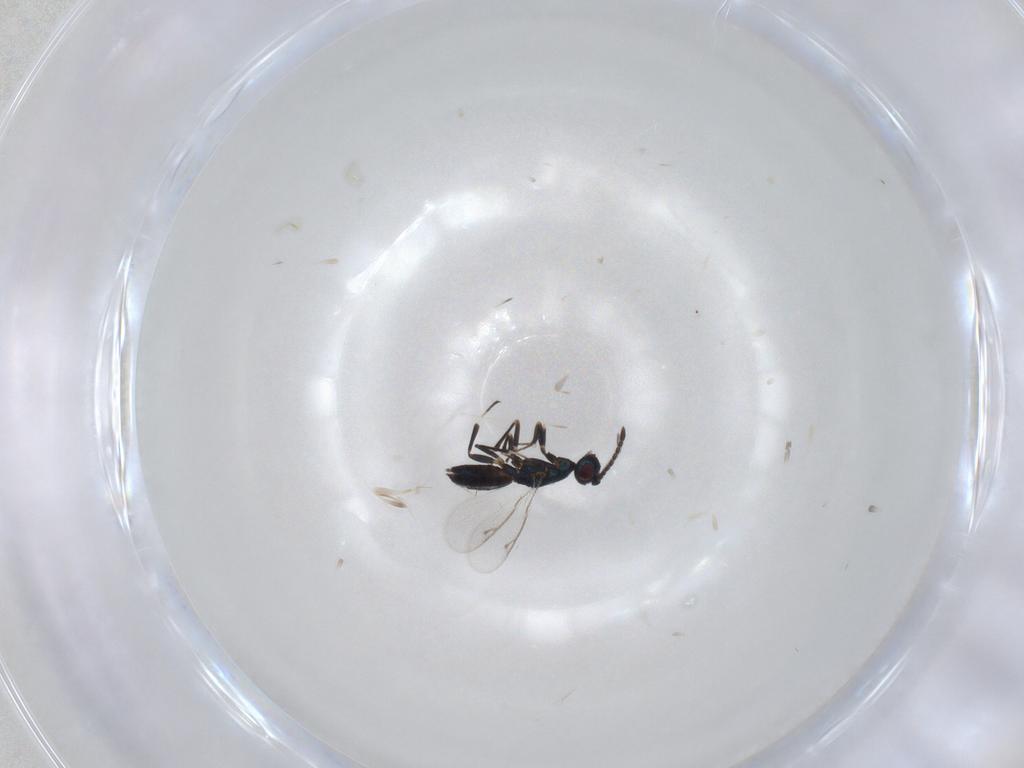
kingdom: Animalia
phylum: Arthropoda
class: Insecta
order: Hymenoptera
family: Eupelmidae
